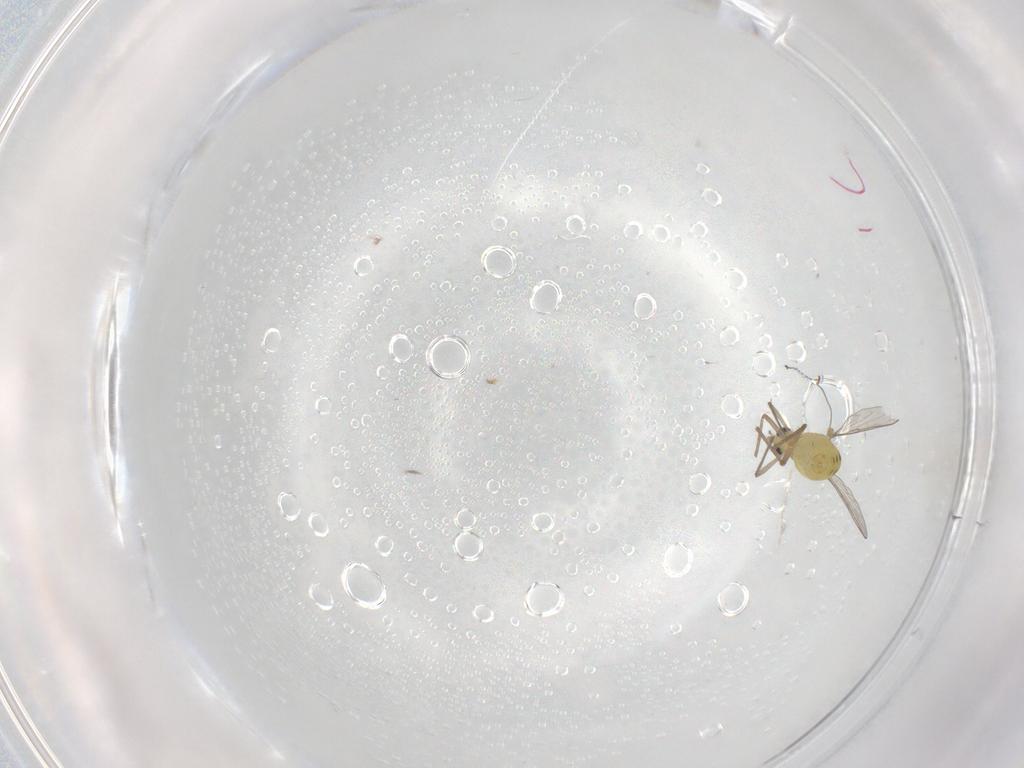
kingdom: Animalia
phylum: Arthropoda
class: Insecta
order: Diptera
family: Chironomidae
